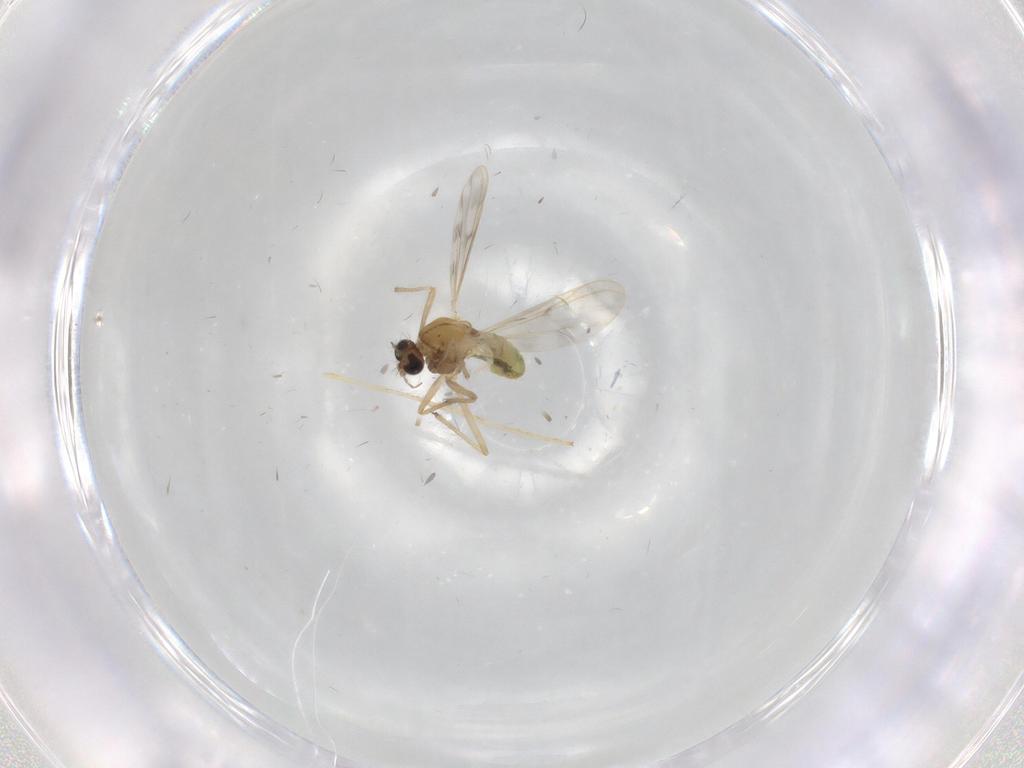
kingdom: Animalia
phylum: Arthropoda
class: Insecta
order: Diptera
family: Chironomidae
